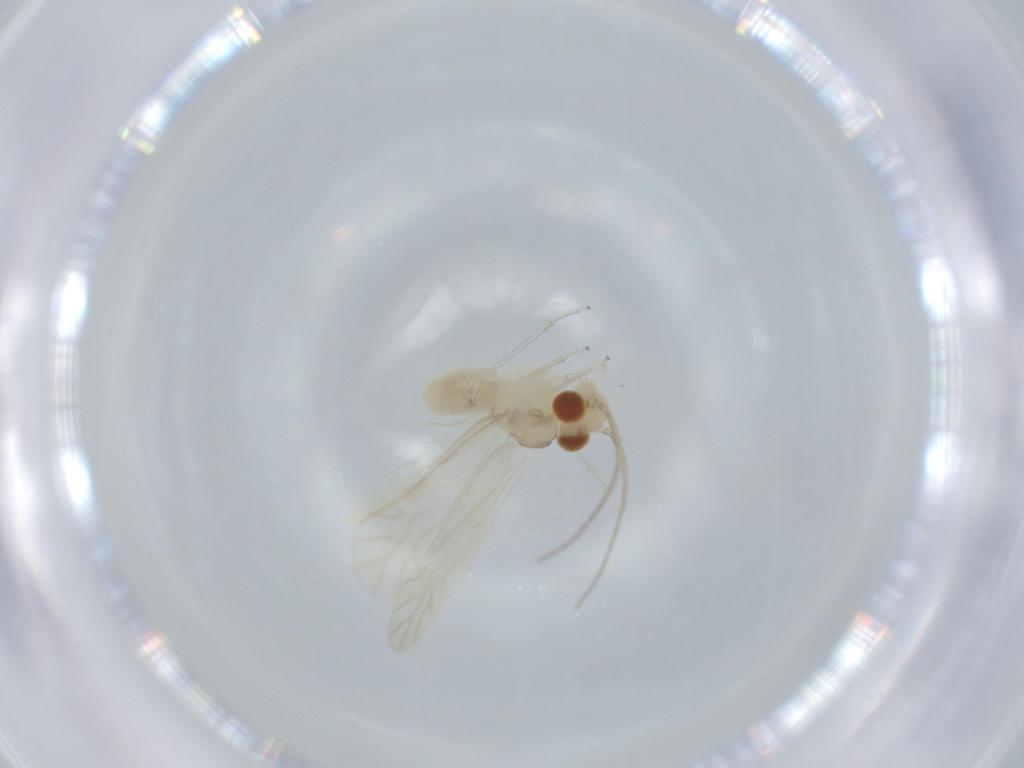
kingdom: Animalia
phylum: Arthropoda
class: Insecta
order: Psocodea
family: Caeciliusidae
